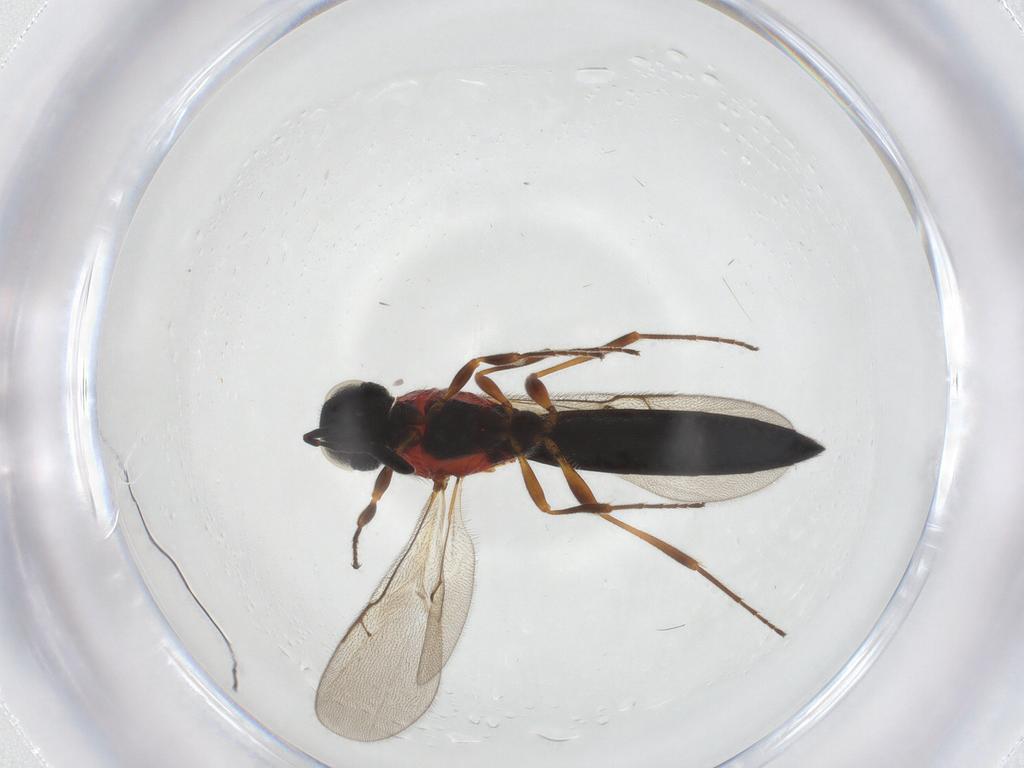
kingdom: Animalia
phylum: Arthropoda
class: Insecta
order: Hymenoptera
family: Scelionidae
